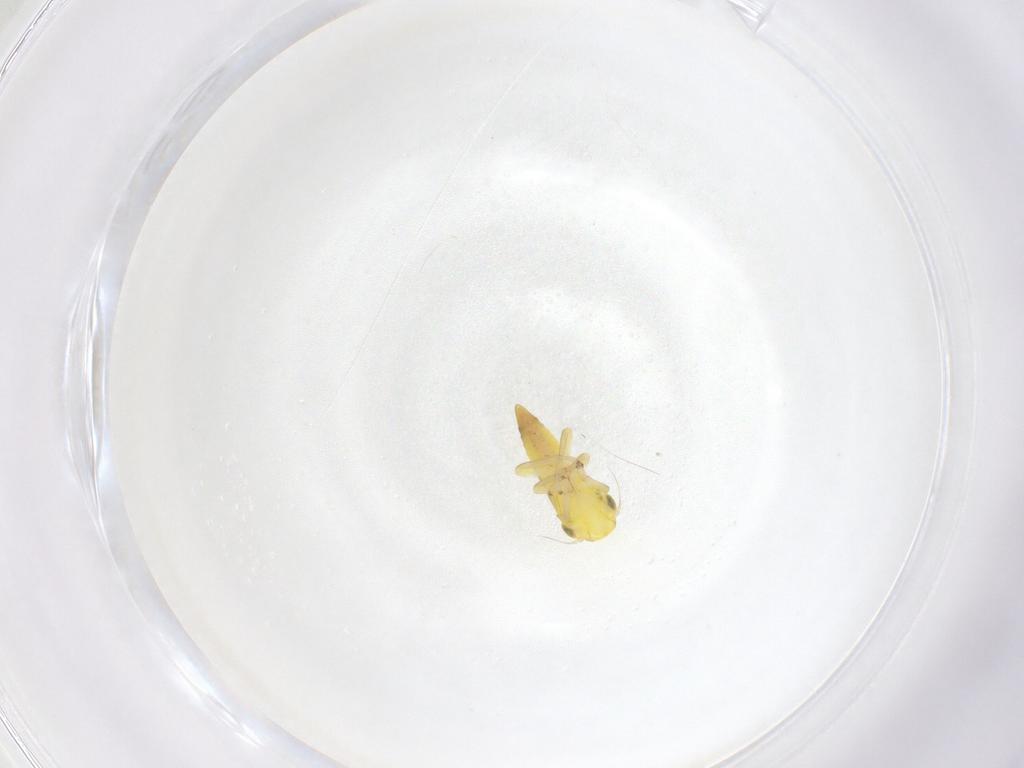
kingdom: Animalia
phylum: Arthropoda
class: Insecta
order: Hemiptera
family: Cicadellidae
